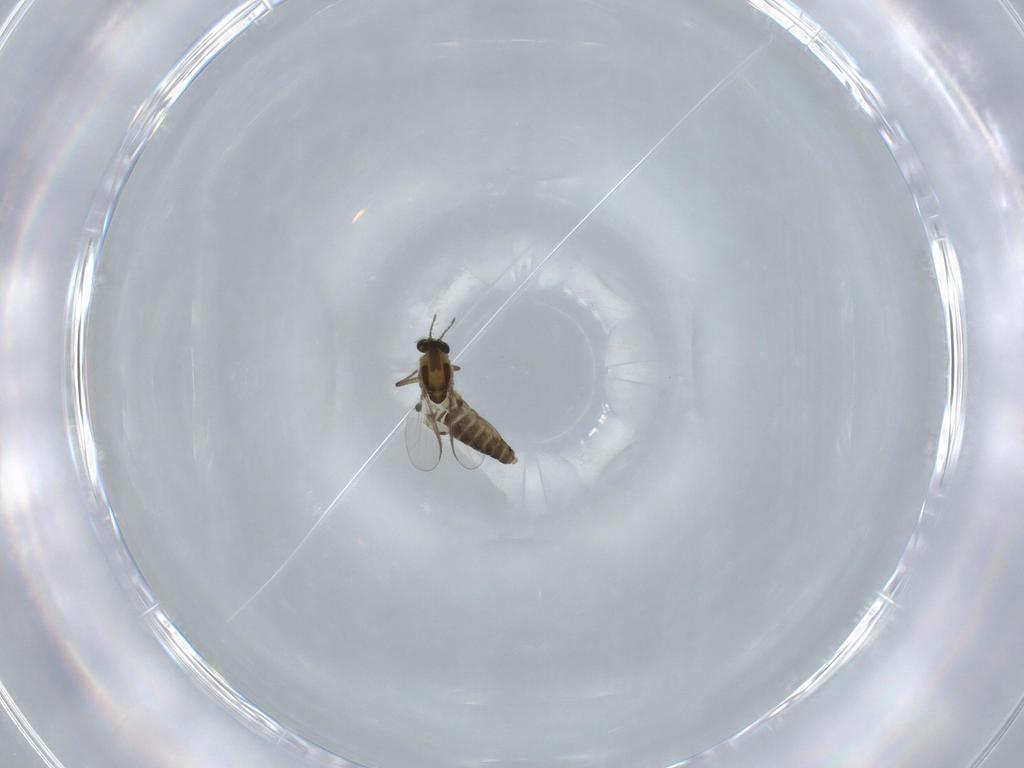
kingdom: Animalia
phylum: Arthropoda
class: Insecta
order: Diptera
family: Chironomidae
